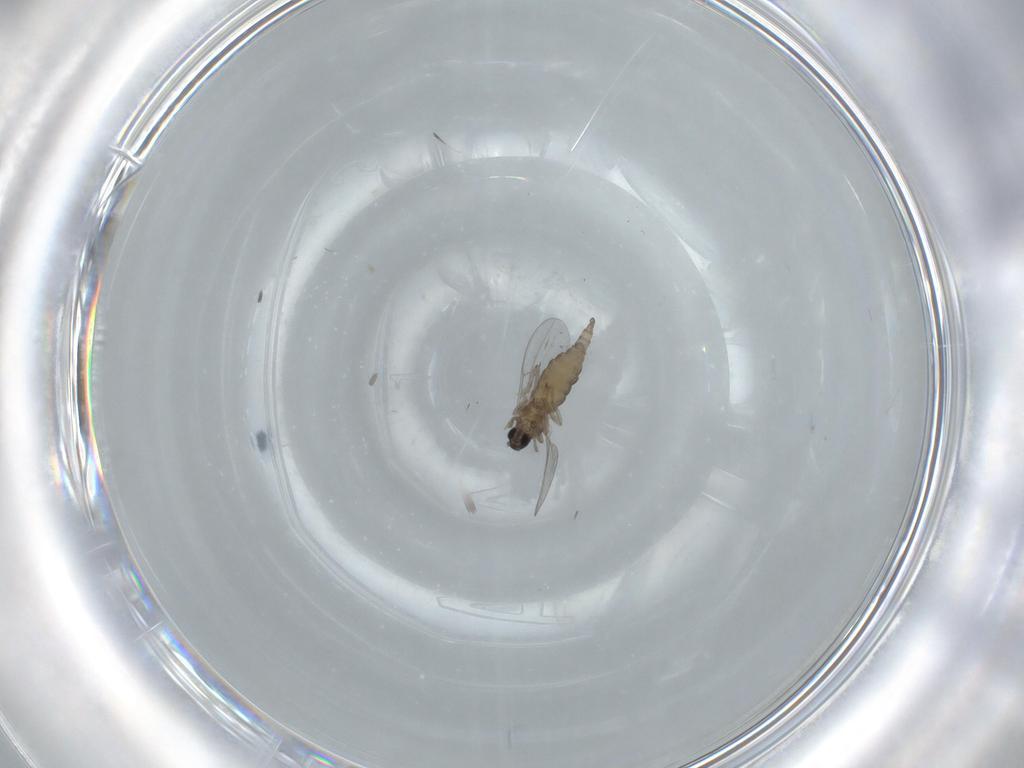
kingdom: Animalia
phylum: Arthropoda
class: Insecta
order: Diptera
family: Cecidomyiidae
